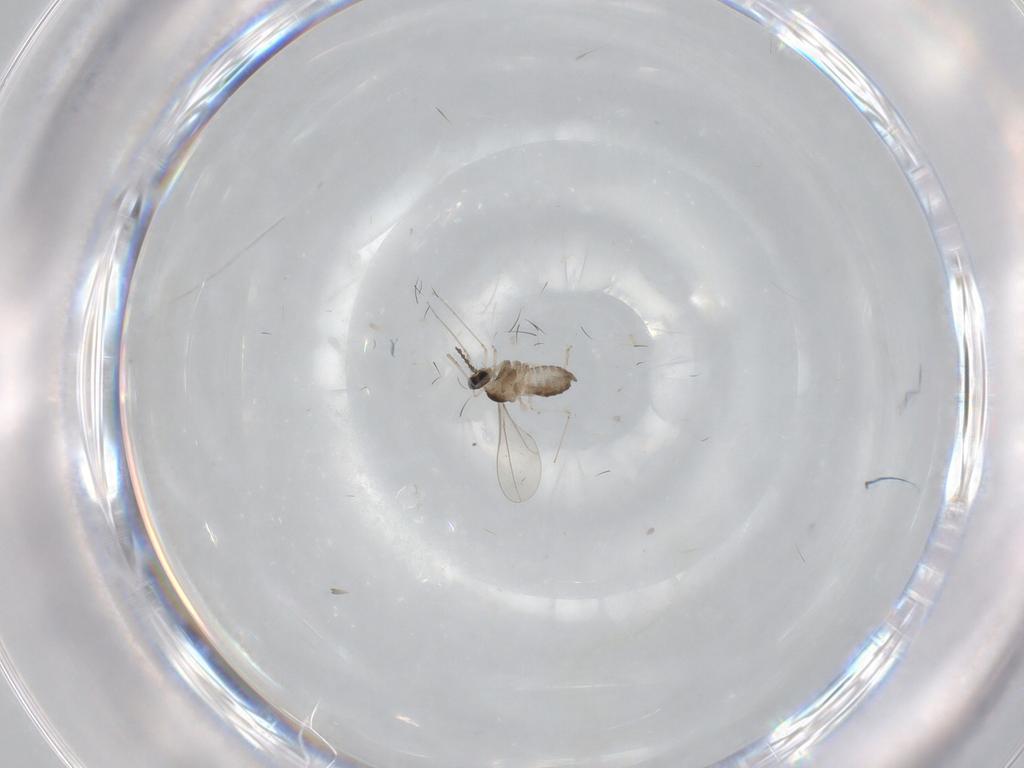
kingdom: Animalia
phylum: Arthropoda
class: Insecta
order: Diptera
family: Cecidomyiidae
